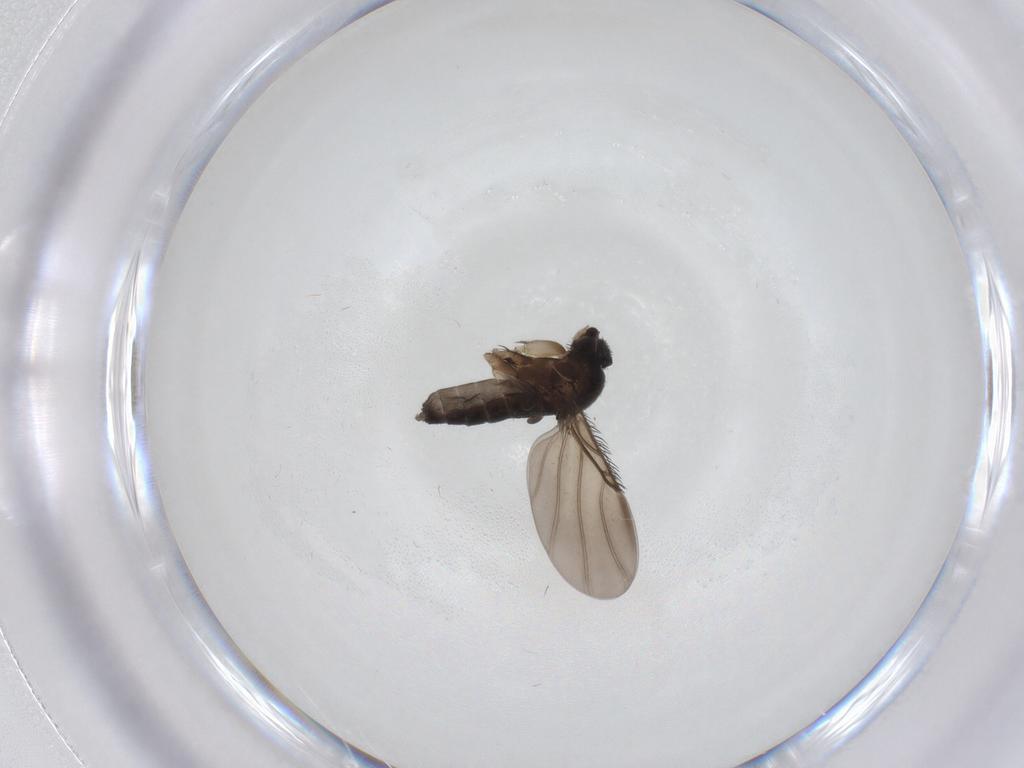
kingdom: Animalia
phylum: Arthropoda
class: Insecta
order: Diptera
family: Phoridae
